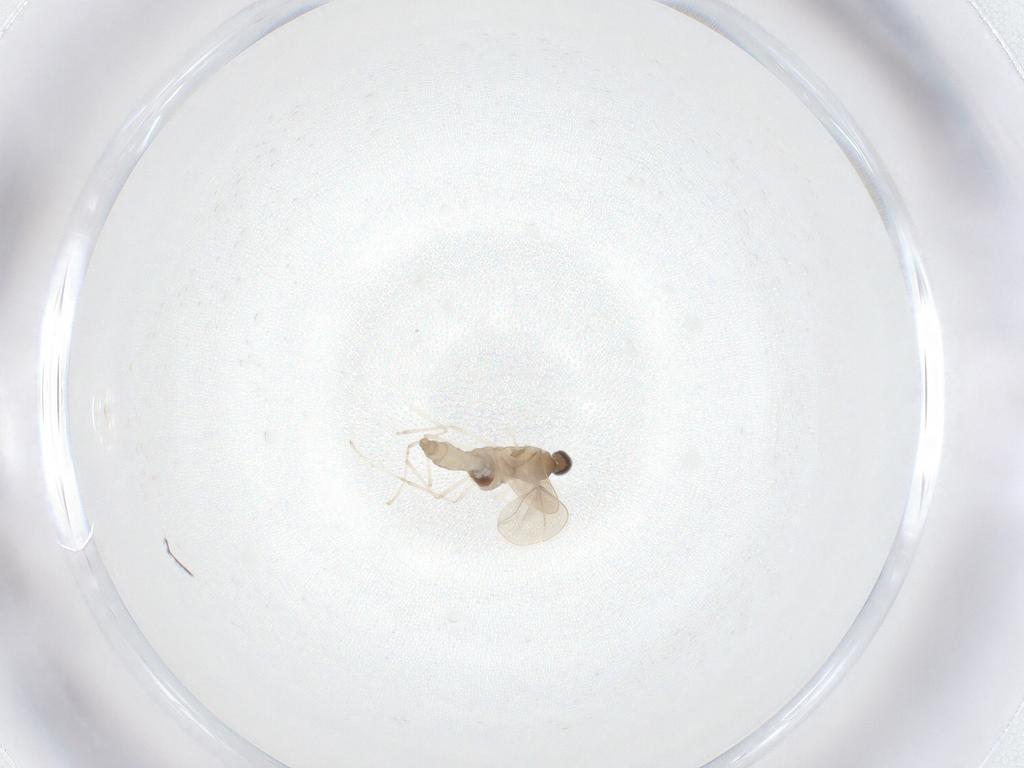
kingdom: Animalia
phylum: Arthropoda
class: Insecta
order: Diptera
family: Cecidomyiidae
